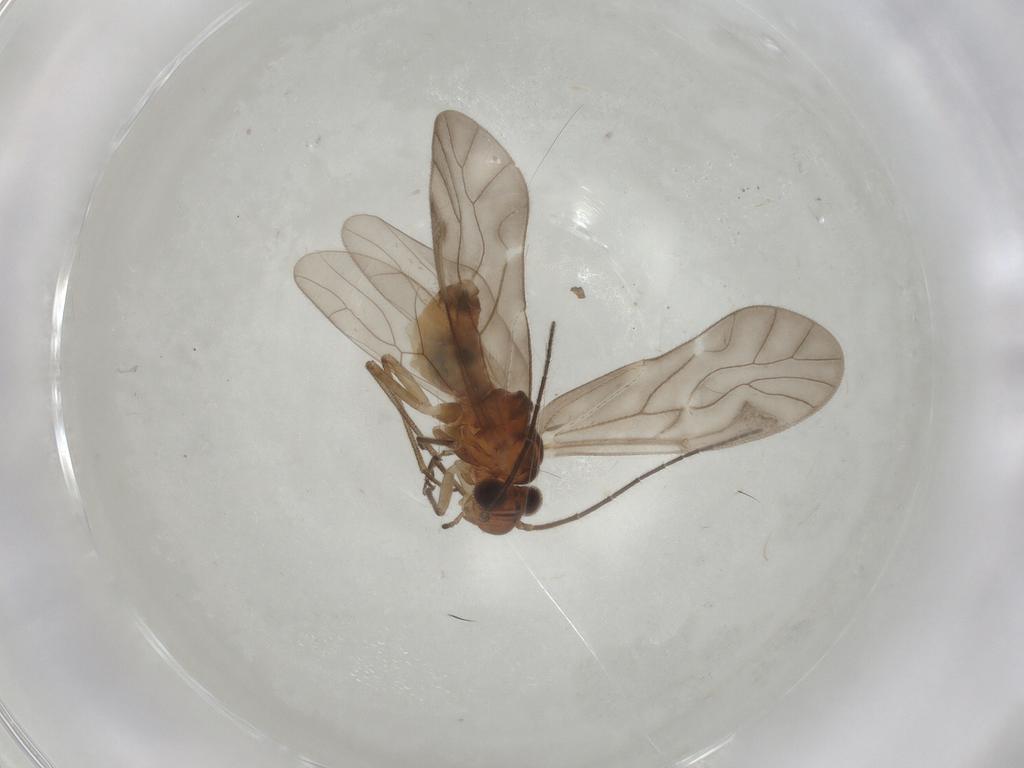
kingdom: Animalia
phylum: Arthropoda
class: Insecta
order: Psocodea
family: Caeciliusidae
